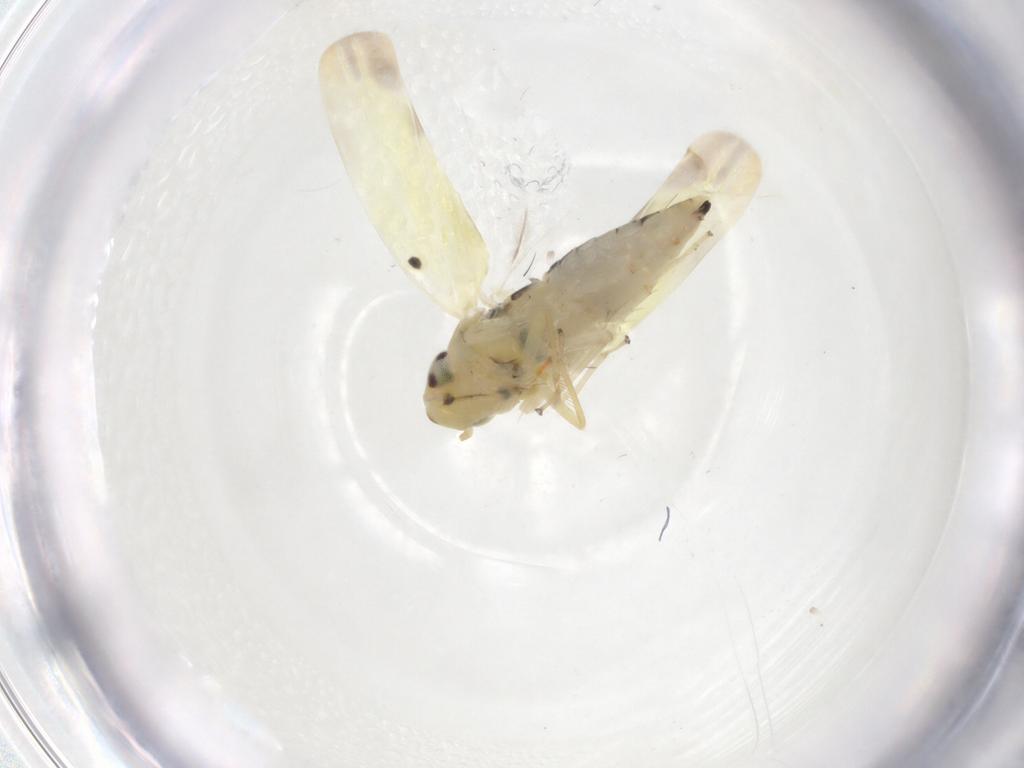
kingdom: Animalia
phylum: Arthropoda
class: Insecta
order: Hemiptera
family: Cicadellidae
